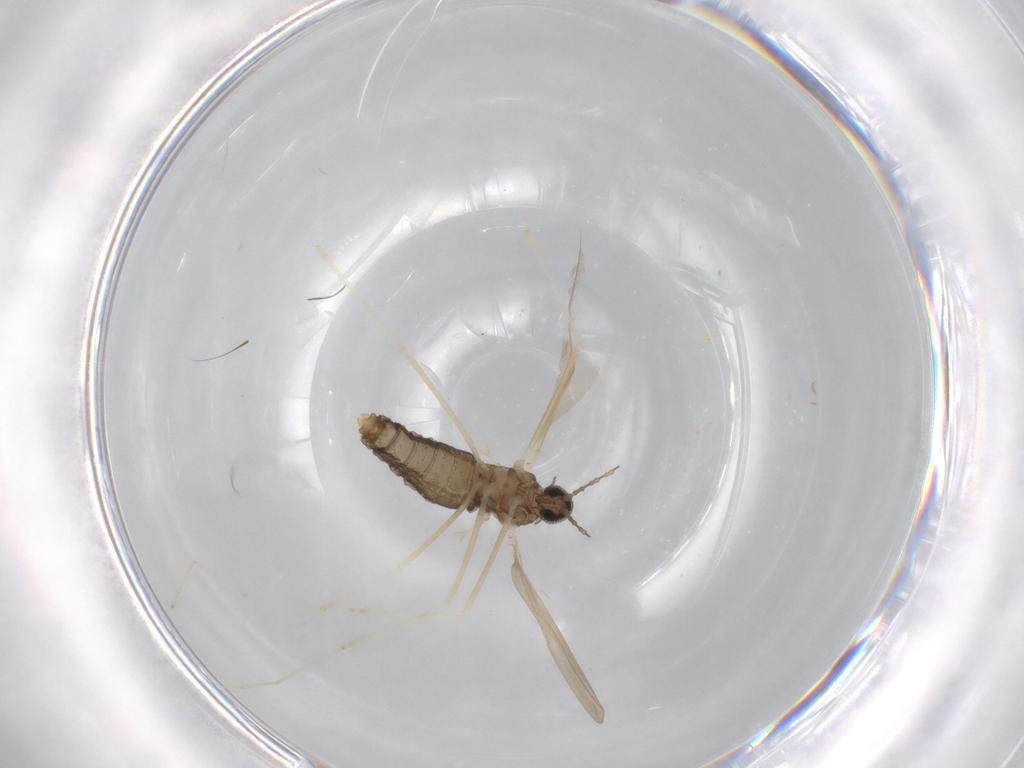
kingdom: Animalia
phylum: Arthropoda
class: Insecta
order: Diptera
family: Cecidomyiidae
